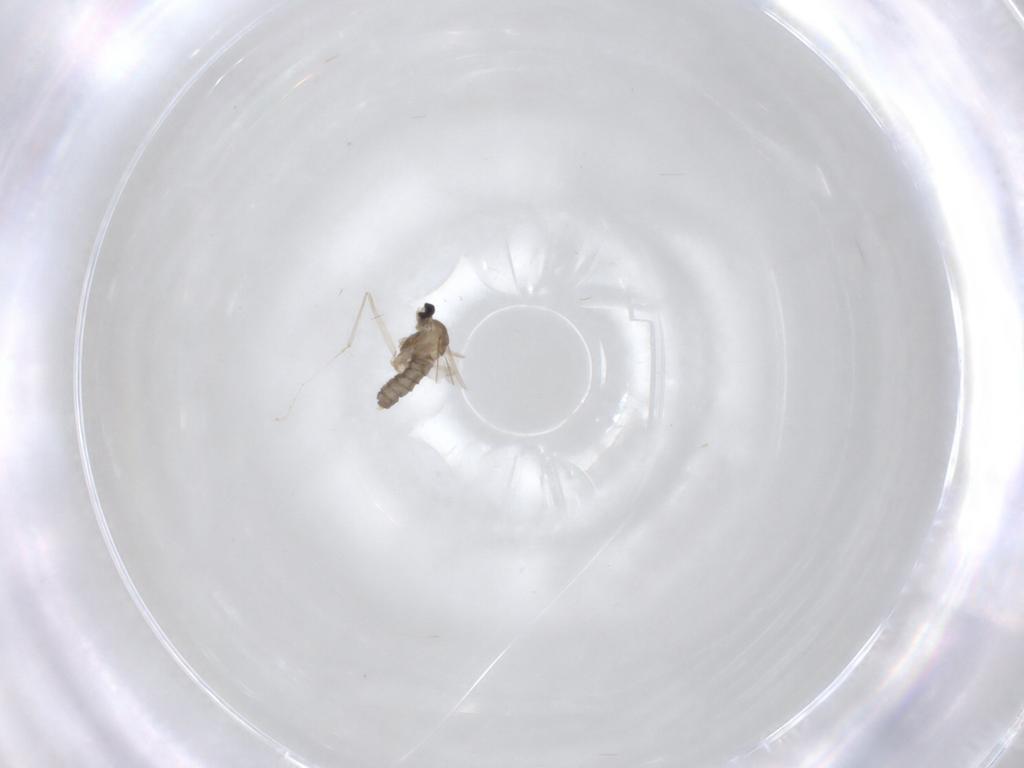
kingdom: Animalia
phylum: Arthropoda
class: Insecta
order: Diptera
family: Cecidomyiidae
